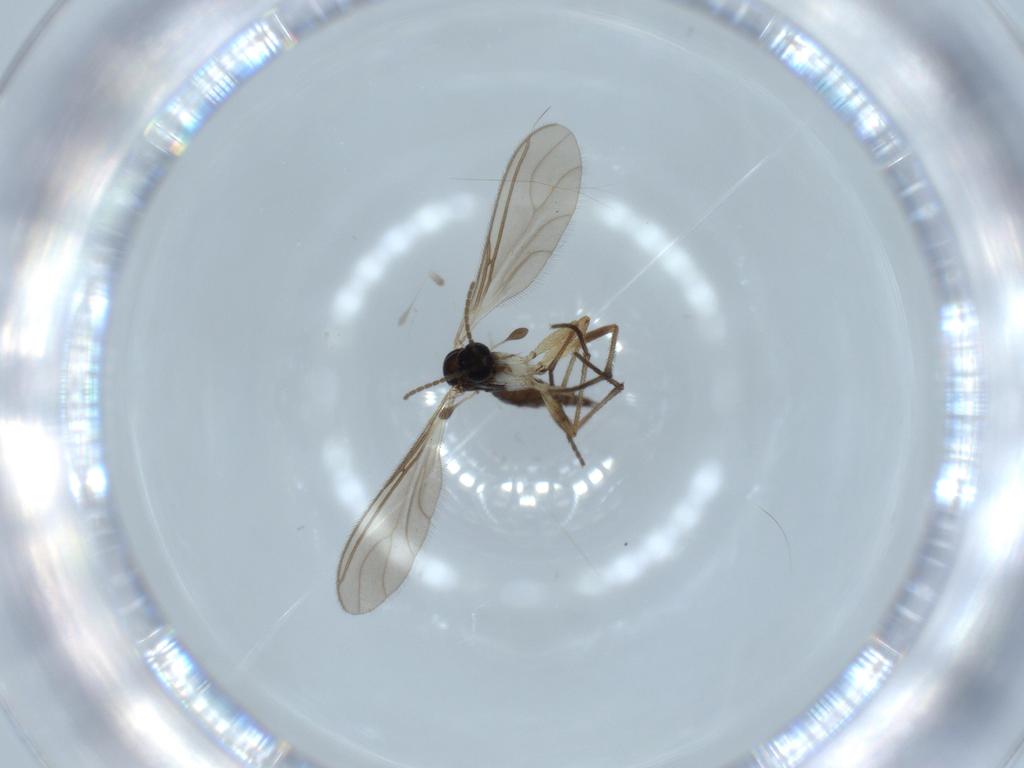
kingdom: Animalia
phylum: Arthropoda
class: Insecta
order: Diptera
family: Sciaridae
